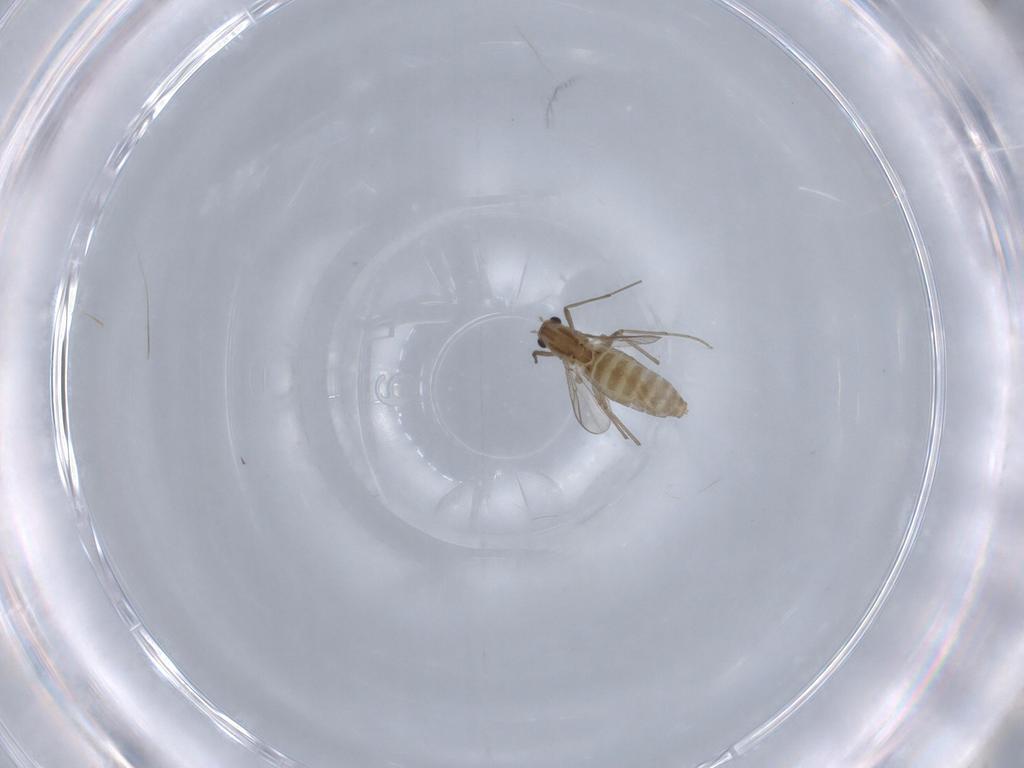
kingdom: Animalia
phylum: Arthropoda
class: Insecta
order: Diptera
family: Chironomidae
